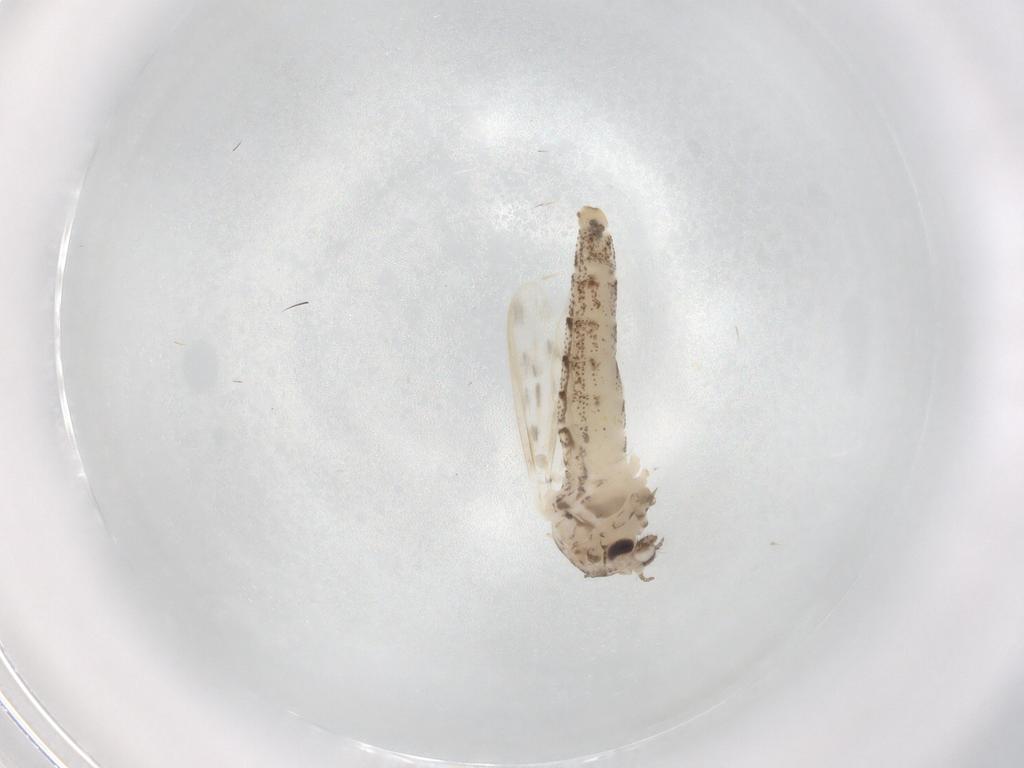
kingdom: Animalia
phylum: Arthropoda
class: Insecta
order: Diptera
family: Chaoboridae
